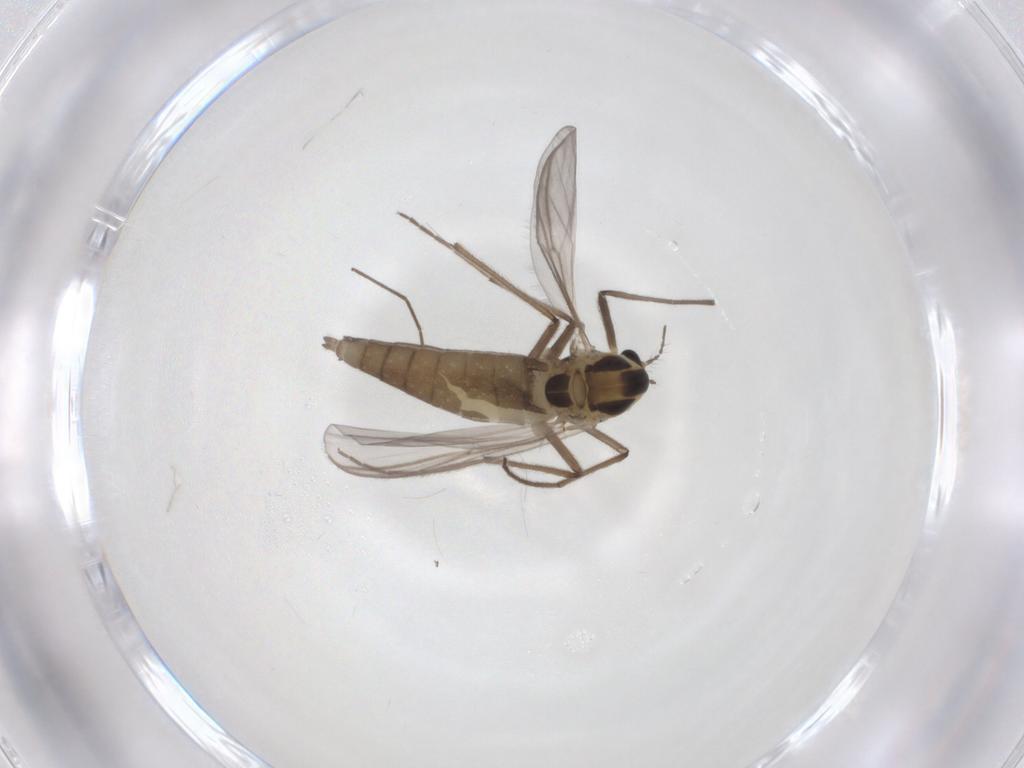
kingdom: Animalia
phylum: Arthropoda
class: Insecta
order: Diptera
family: Chironomidae
